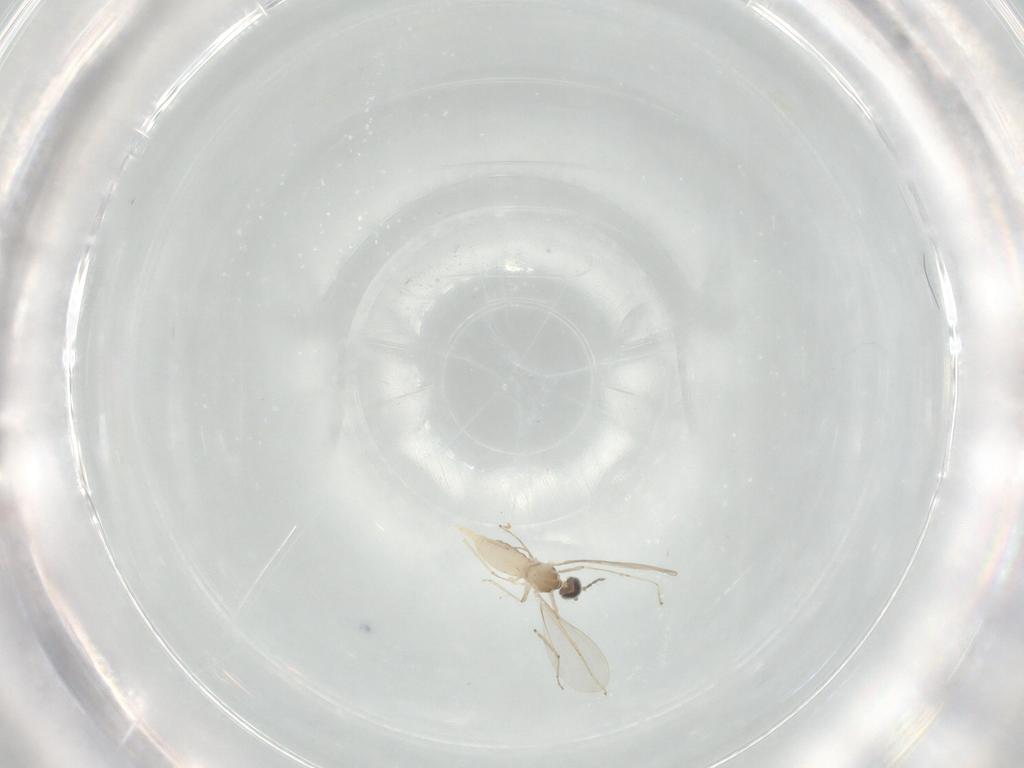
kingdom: Animalia
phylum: Arthropoda
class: Insecta
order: Diptera
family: Cecidomyiidae
